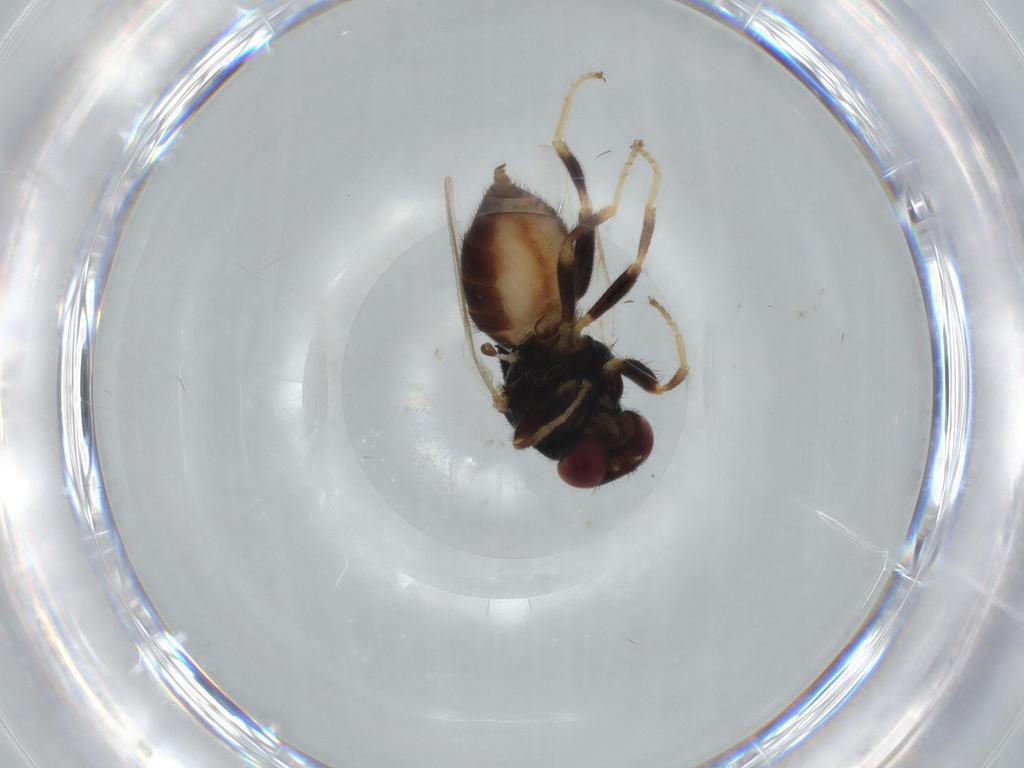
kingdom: Animalia
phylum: Arthropoda
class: Insecta
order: Diptera
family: Chloropidae
